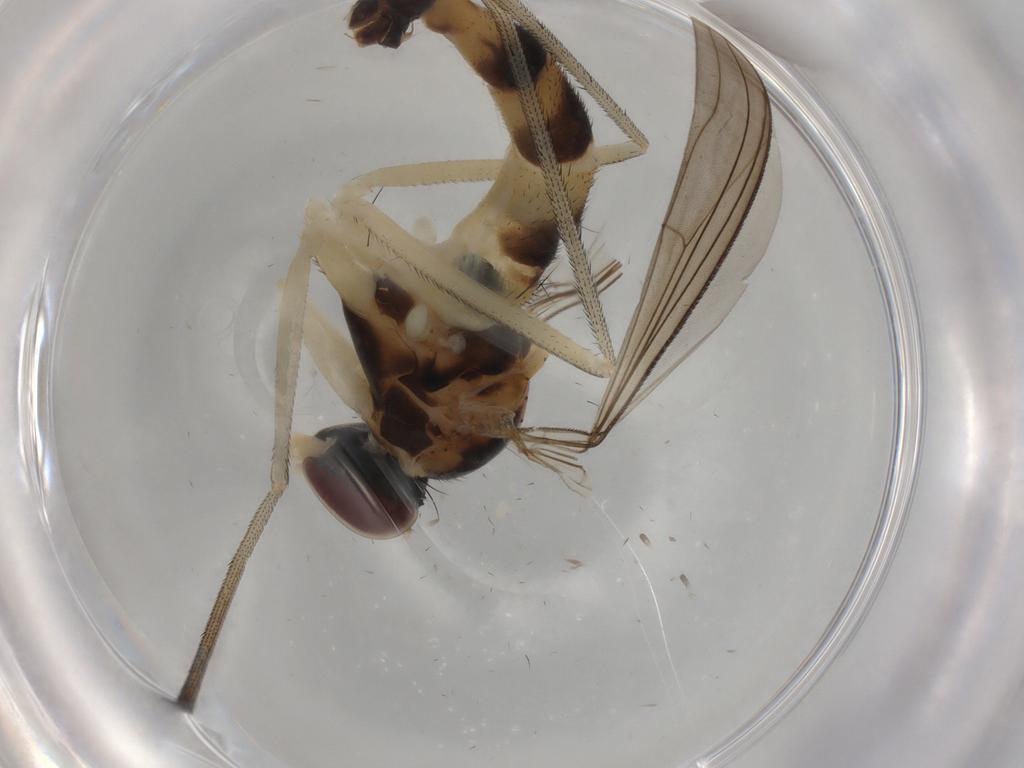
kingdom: Animalia
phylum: Arthropoda
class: Insecta
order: Diptera
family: Muscidae
